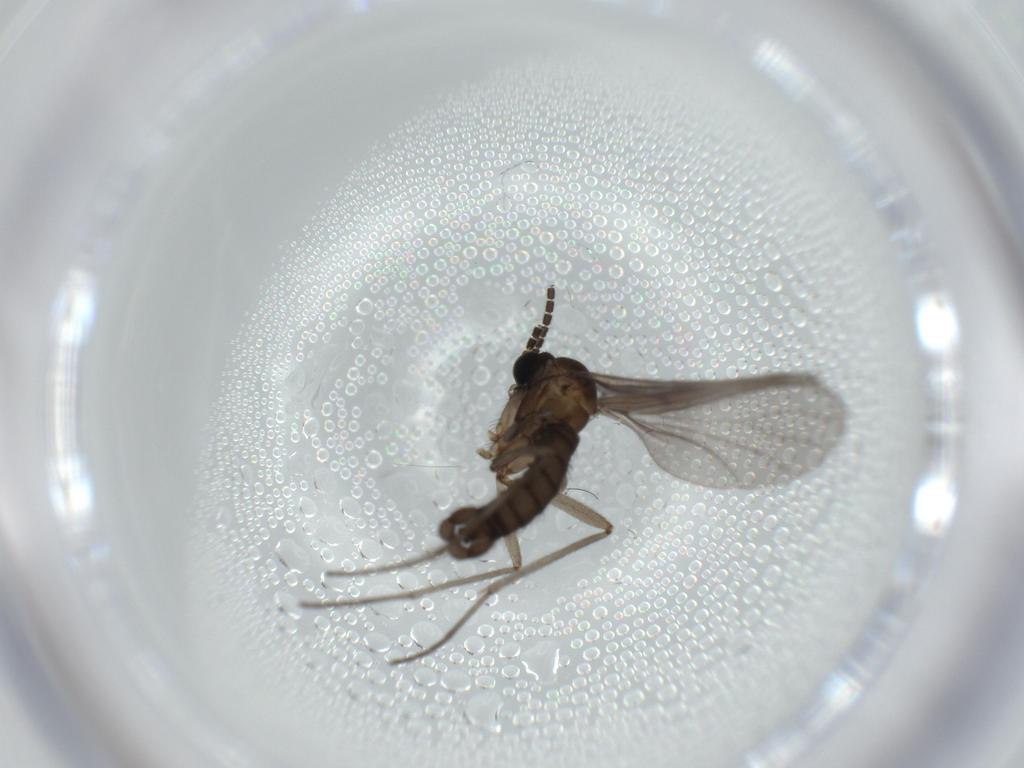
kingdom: Animalia
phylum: Arthropoda
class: Insecta
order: Diptera
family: Sciaridae
